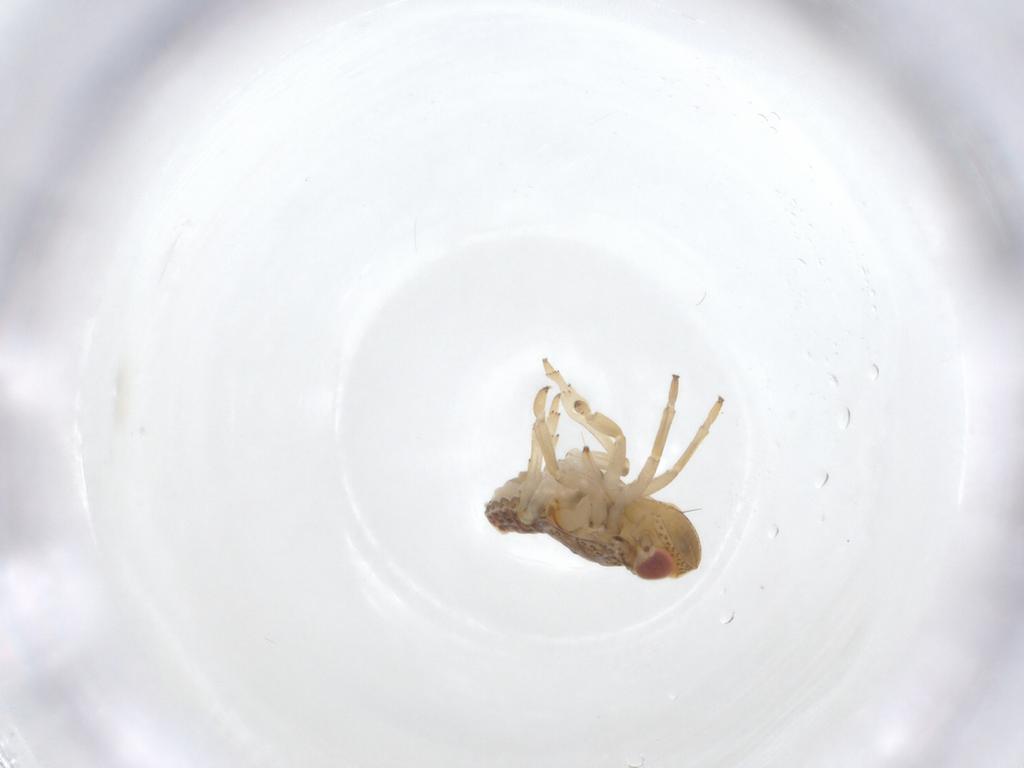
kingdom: Animalia
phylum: Arthropoda
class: Insecta
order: Hemiptera
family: Issidae
